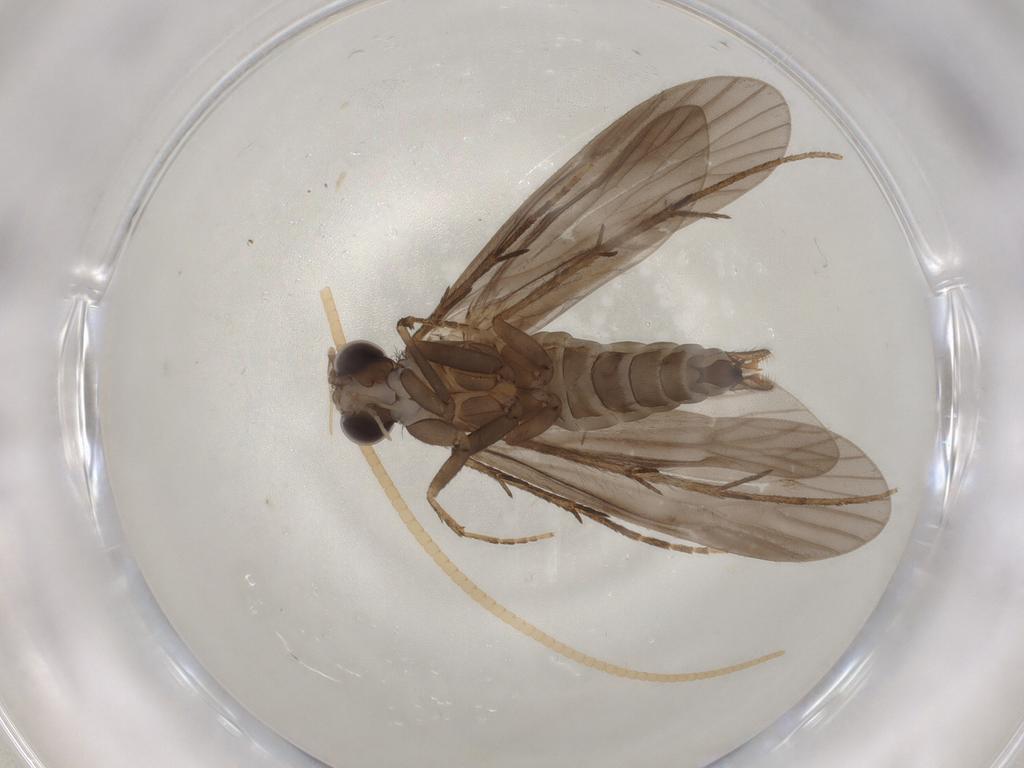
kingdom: Animalia
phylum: Arthropoda
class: Insecta
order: Trichoptera
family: Ecnomidae
